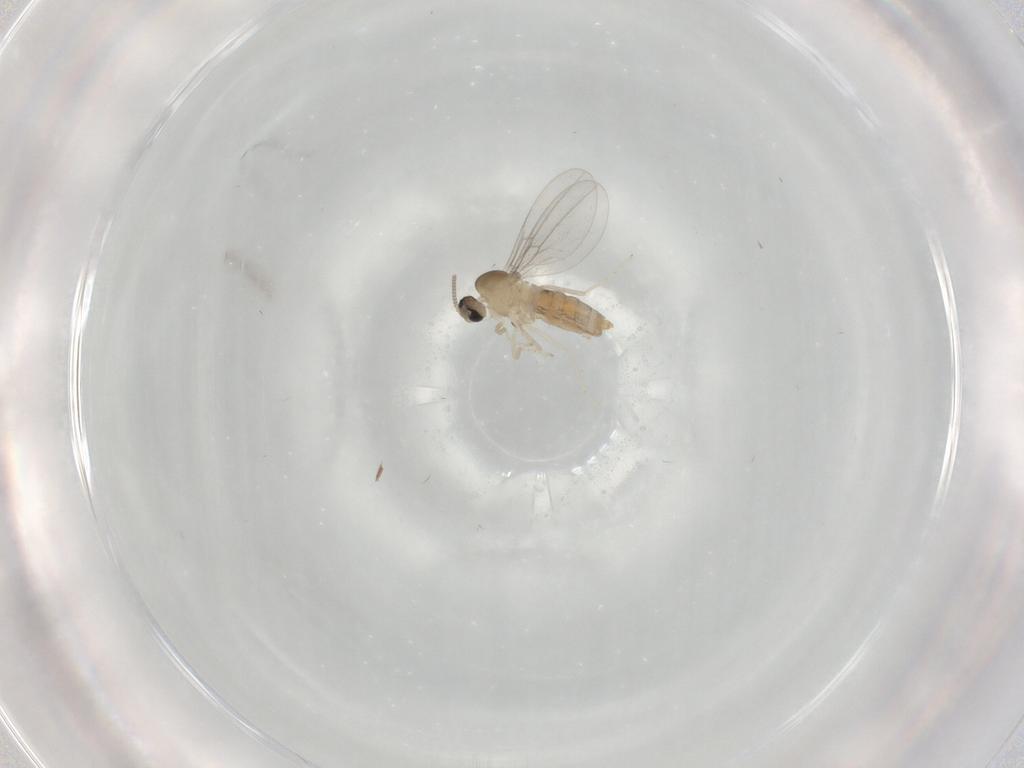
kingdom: Animalia
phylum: Arthropoda
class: Insecta
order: Diptera
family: Cecidomyiidae
